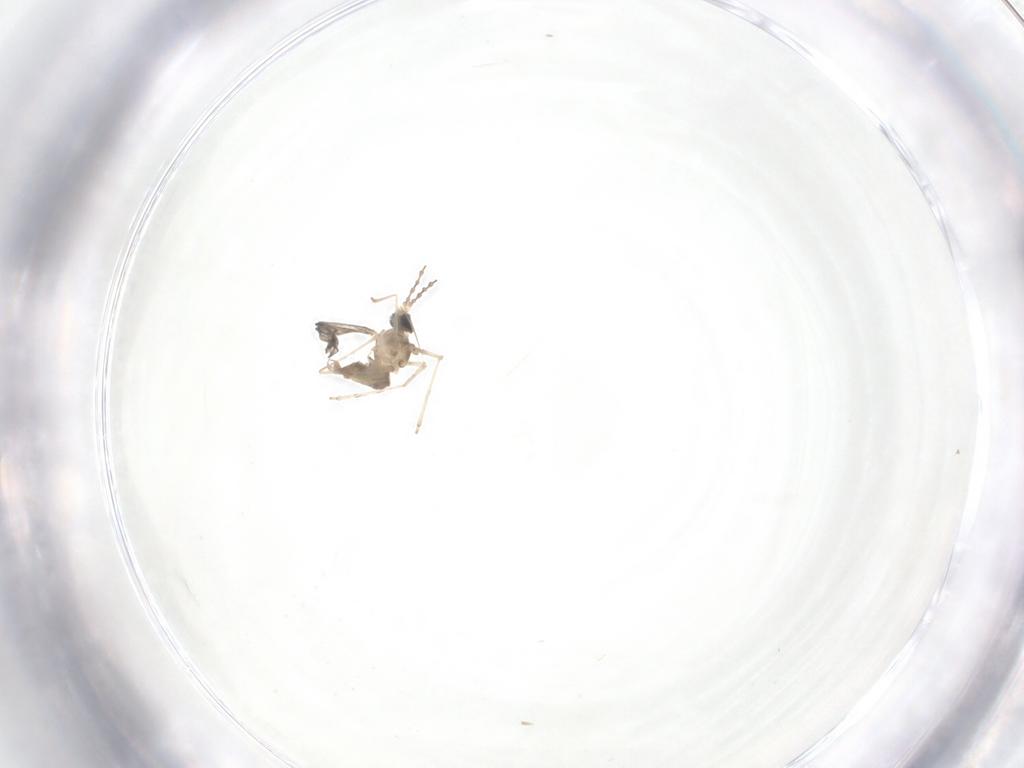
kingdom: Animalia
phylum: Arthropoda
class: Insecta
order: Diptera
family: Cecidomyiidae
